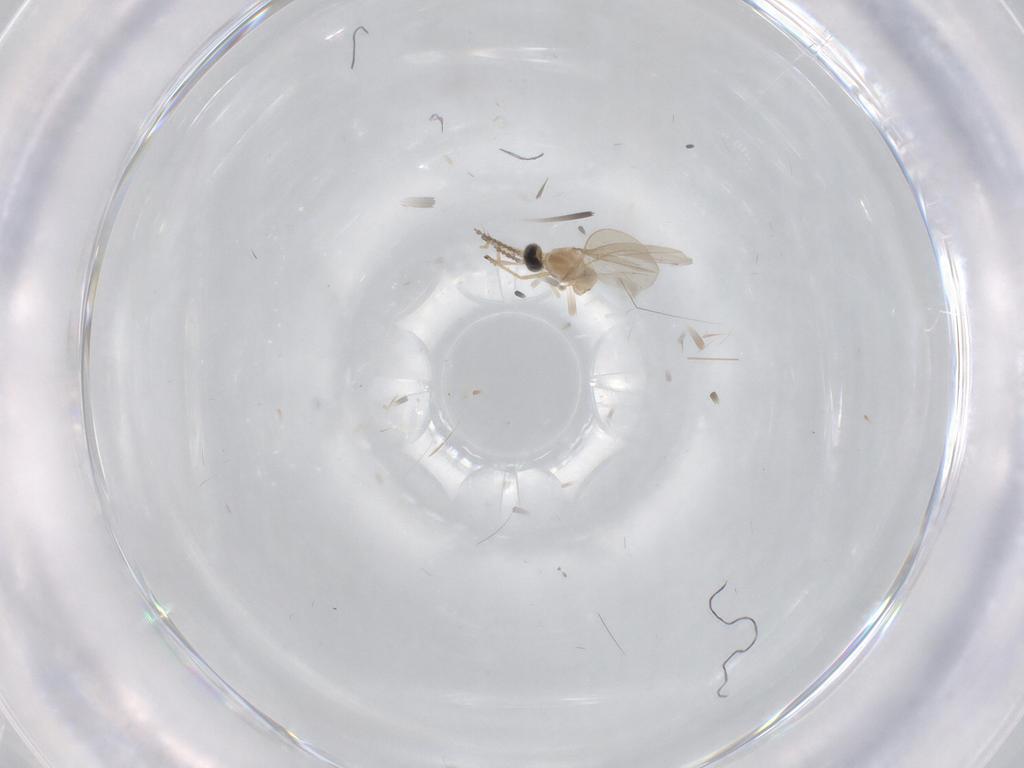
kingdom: Animalia
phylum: Arthropoda
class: Insecta
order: Diptera
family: Cecidomyiidae
